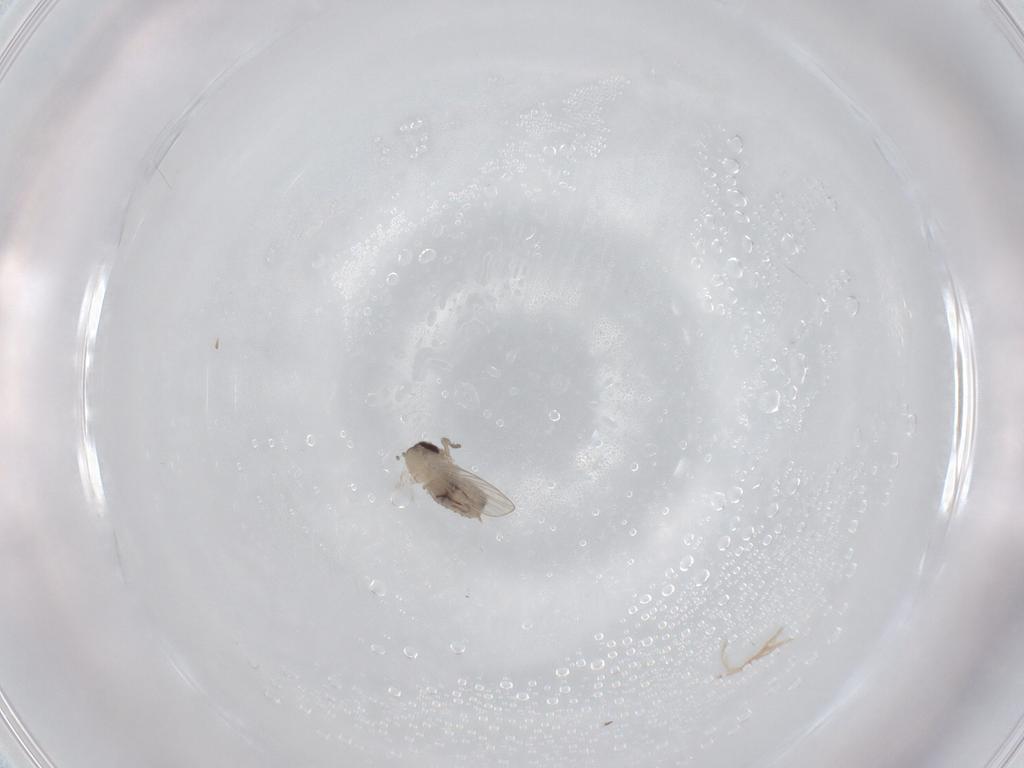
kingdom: Animalia
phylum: Arthropoda
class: Insecta
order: Diptera
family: Psychodidae
